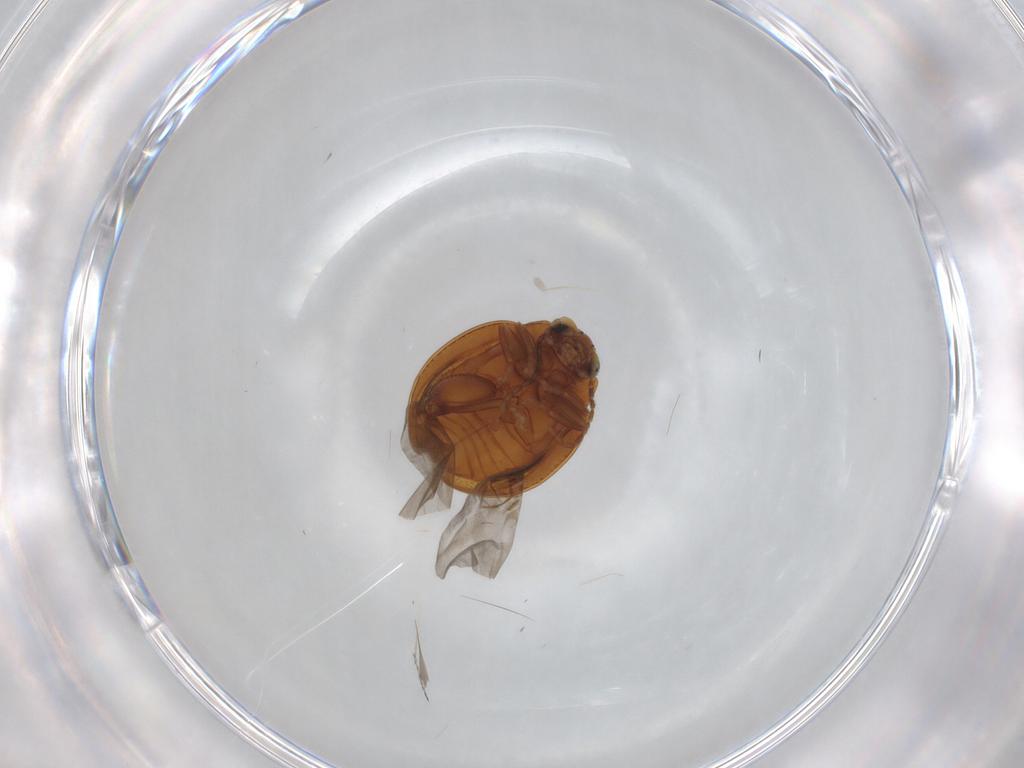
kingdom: Animalia
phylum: Arthropoda
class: Insecta
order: Coleoptera
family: Chrysomelidae
